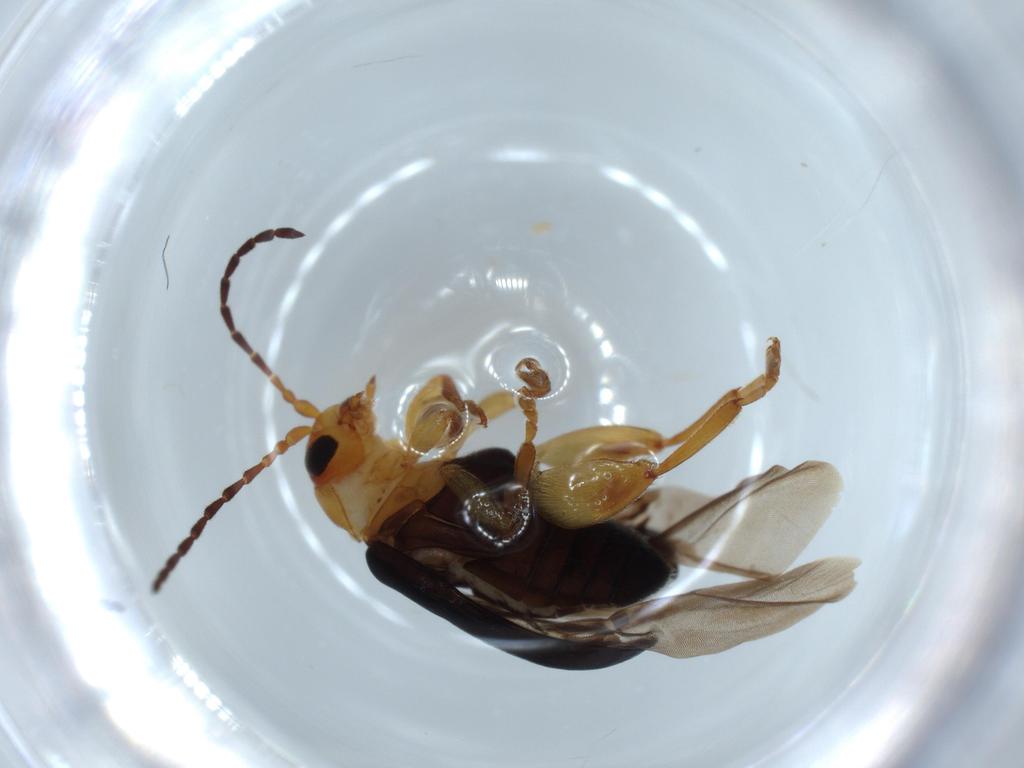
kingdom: Animalia
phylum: Arthropoda
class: Insecta
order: Coleoptera
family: Chrysomelidae
